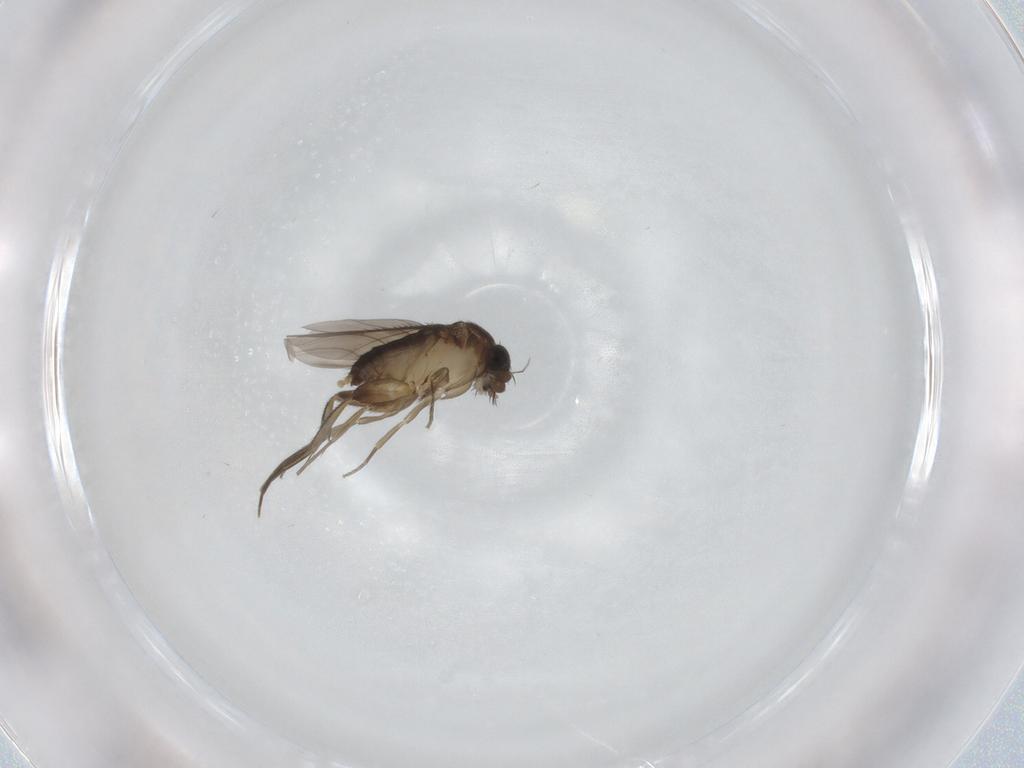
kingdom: Animalia
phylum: Arthropoda
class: Insecta
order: Diptera
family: Phoridae
